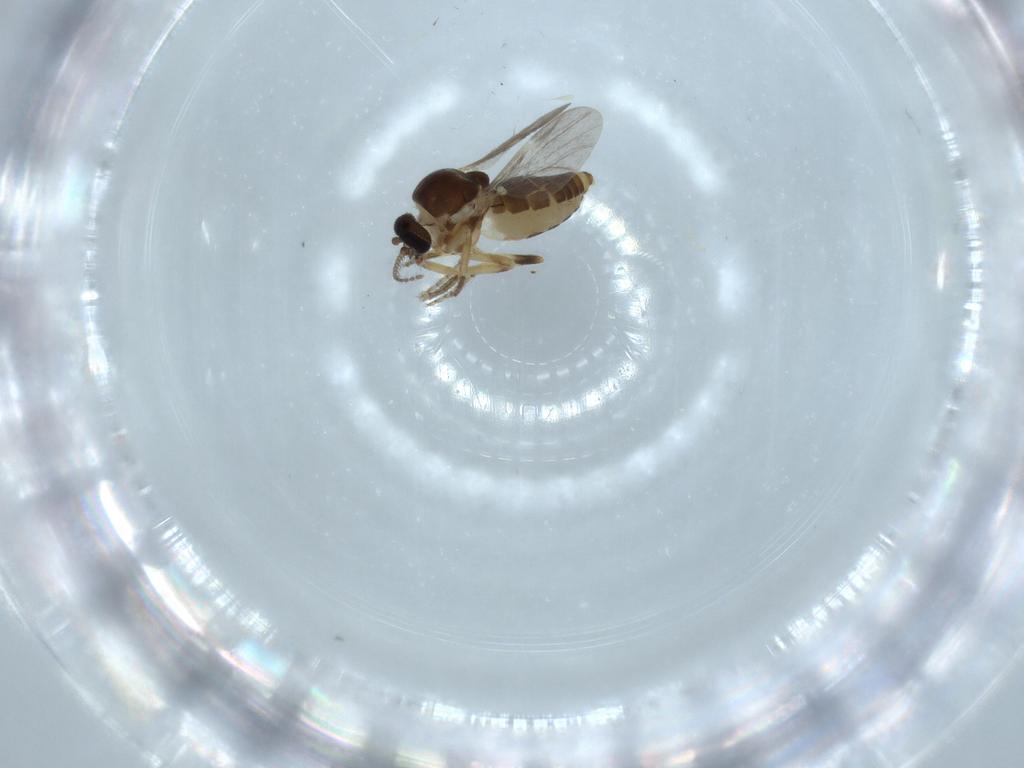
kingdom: Animalia
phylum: Arthropoda
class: Insecta
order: Diptera
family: Ceratopogonidae
